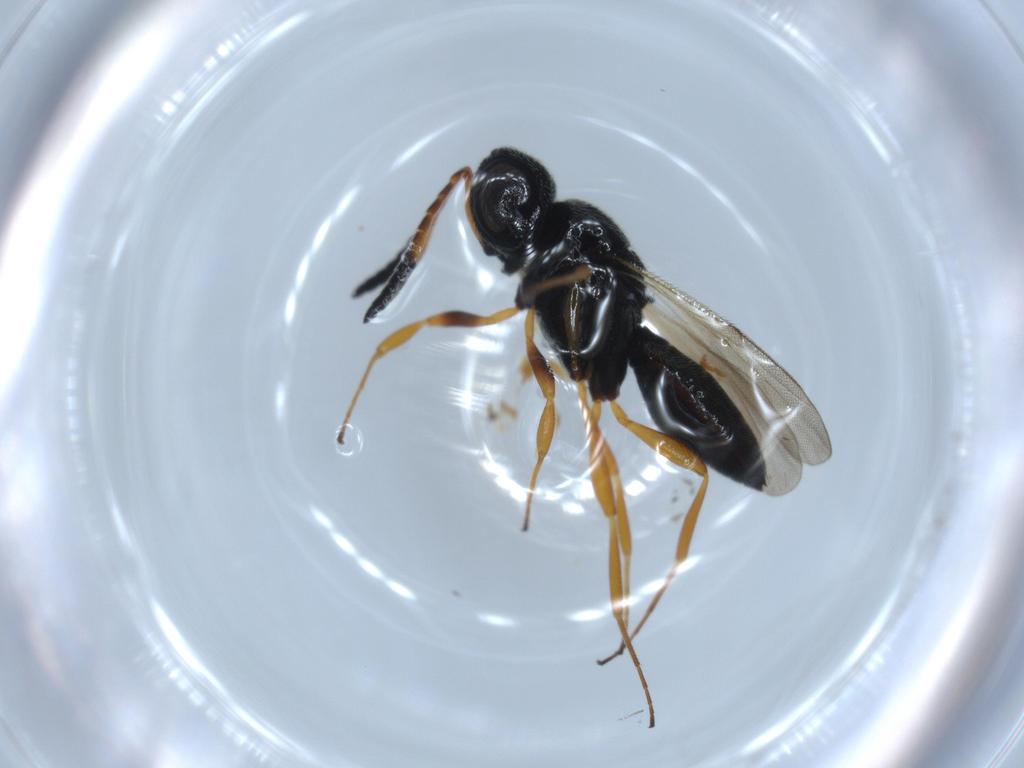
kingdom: Animalia
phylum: Arthropoda
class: Insecta
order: Hymenoptera
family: Scelionidae
